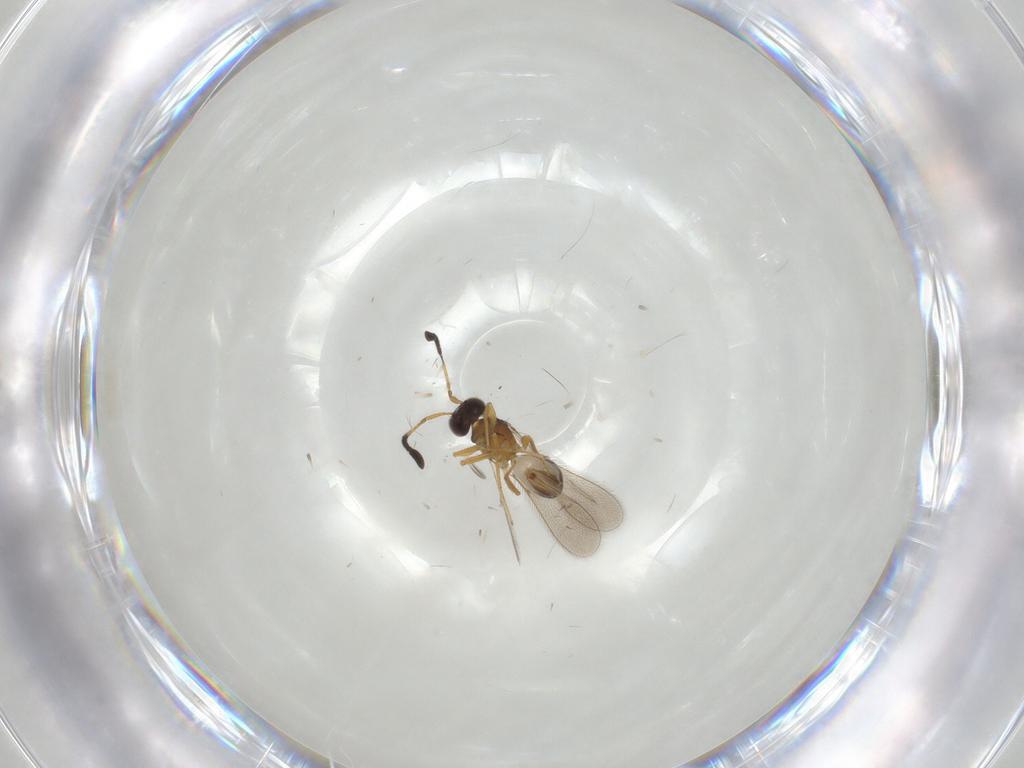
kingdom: Animalia
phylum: Arthropoda
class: Insecta
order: Hymenoptera
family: Mymaridae
